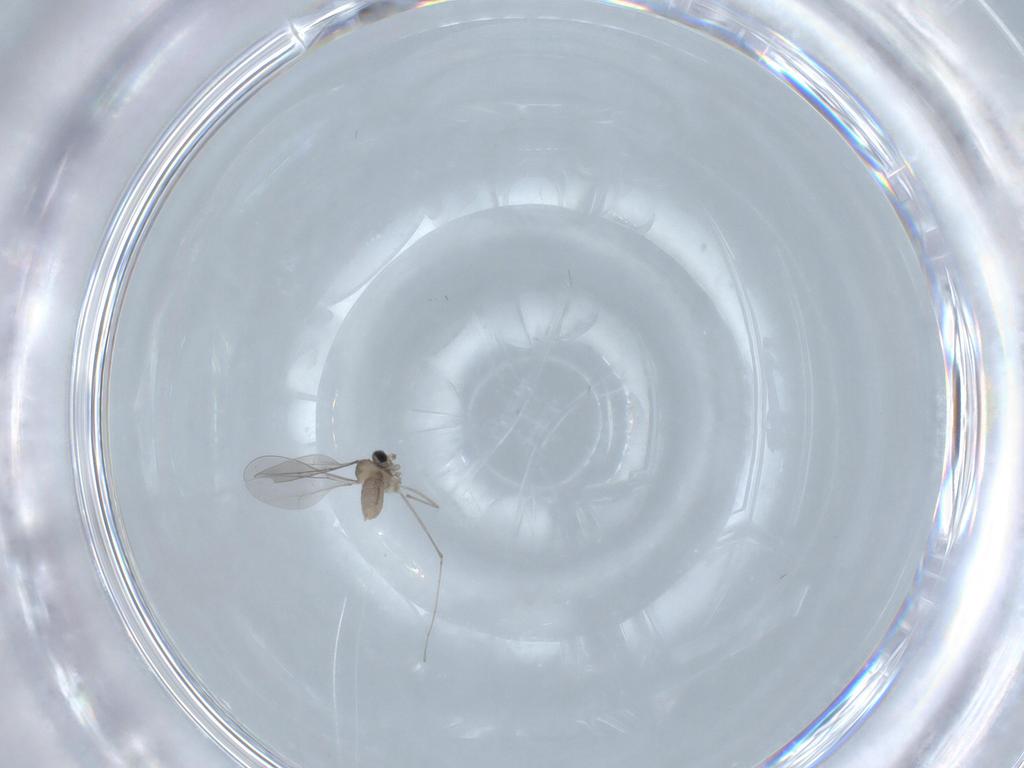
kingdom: Animalia
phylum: Arthropoda
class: Insecta
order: Diptera
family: Cecidomyiidae
